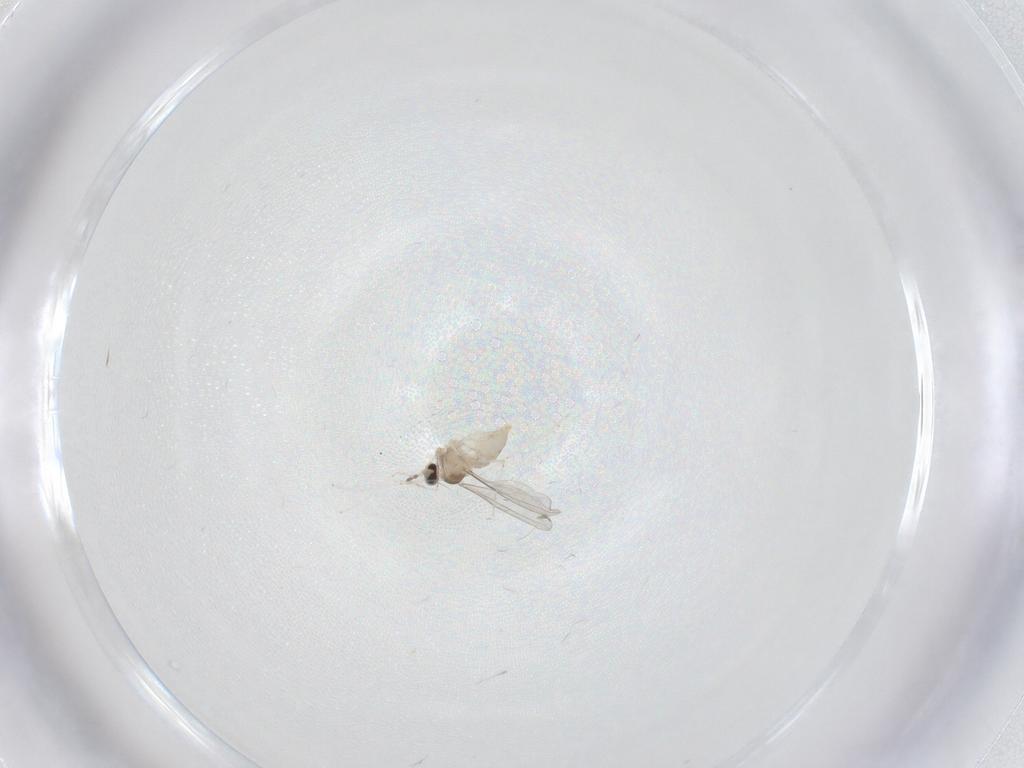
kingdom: Animalia
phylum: Arthropoda
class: Insecta
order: Diptera
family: Cecidomyiidae
